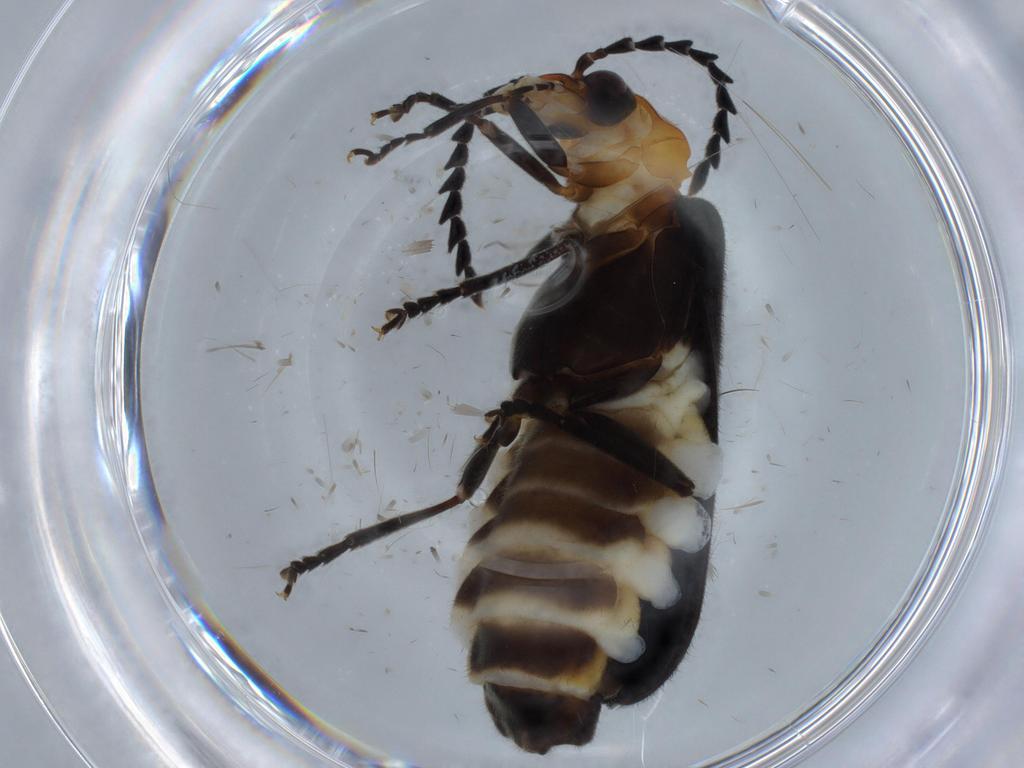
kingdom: Animalia
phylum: Arthropoda
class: Insecta
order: Coleoptera
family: Cantharidae
